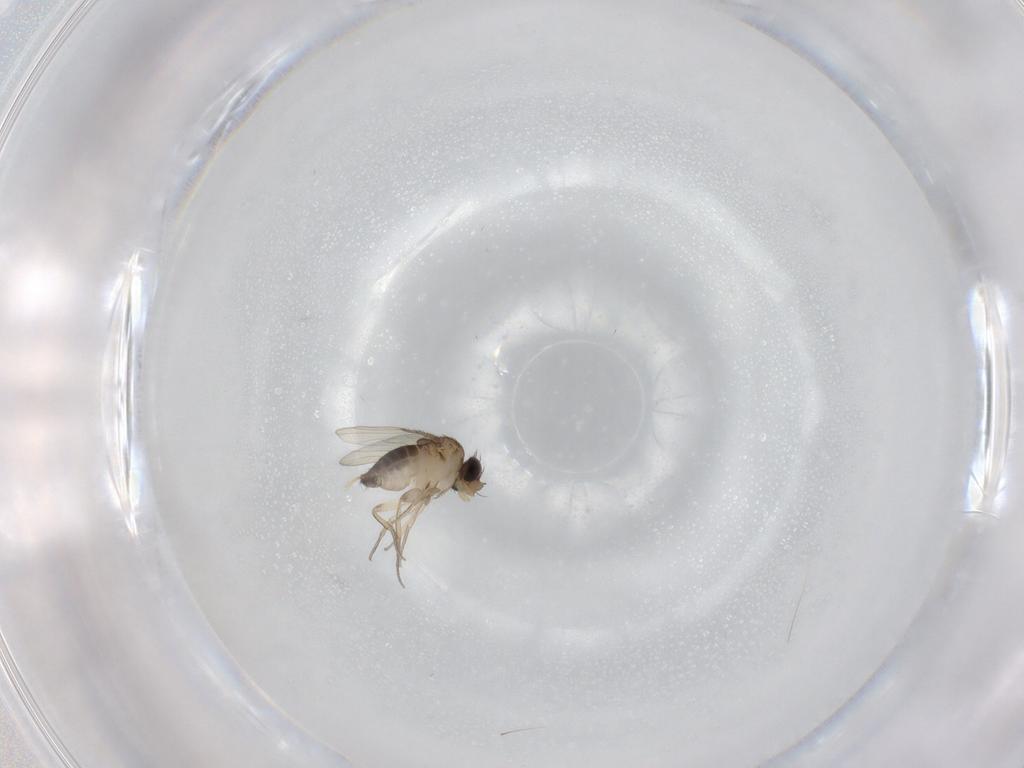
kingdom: Animalia
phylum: Arthropoda
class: Insecta
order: Diptera
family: Phoridae
